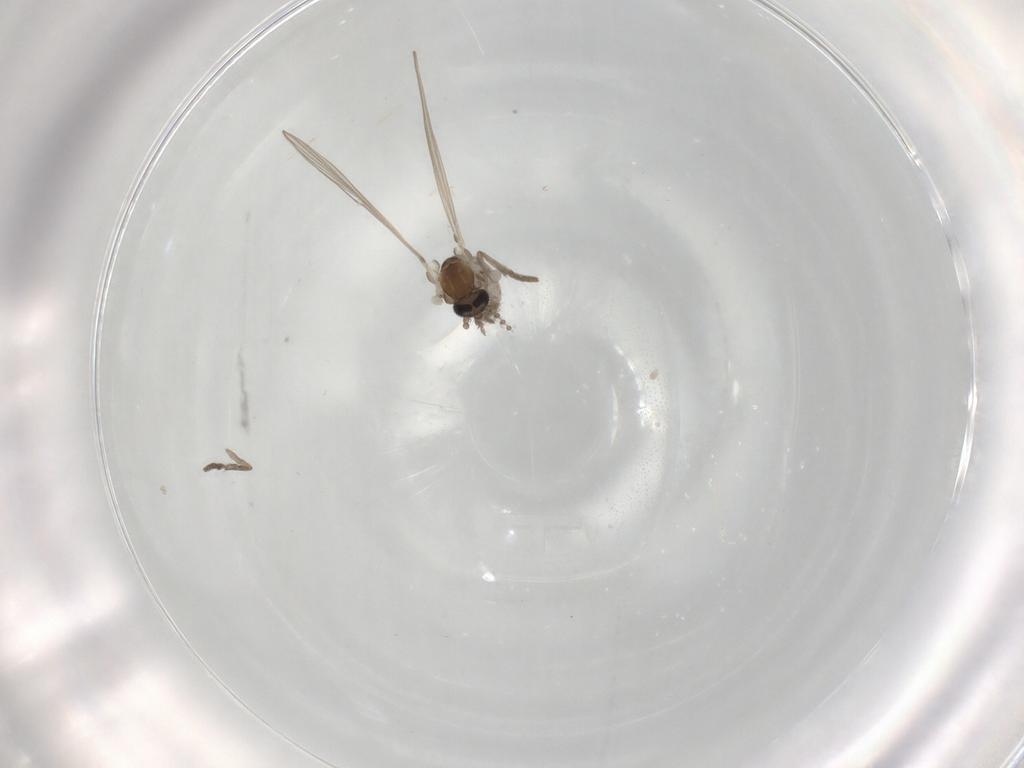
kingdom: Animalia
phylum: Arthropoda
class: Insecta
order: Diptera
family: Psychodidae
